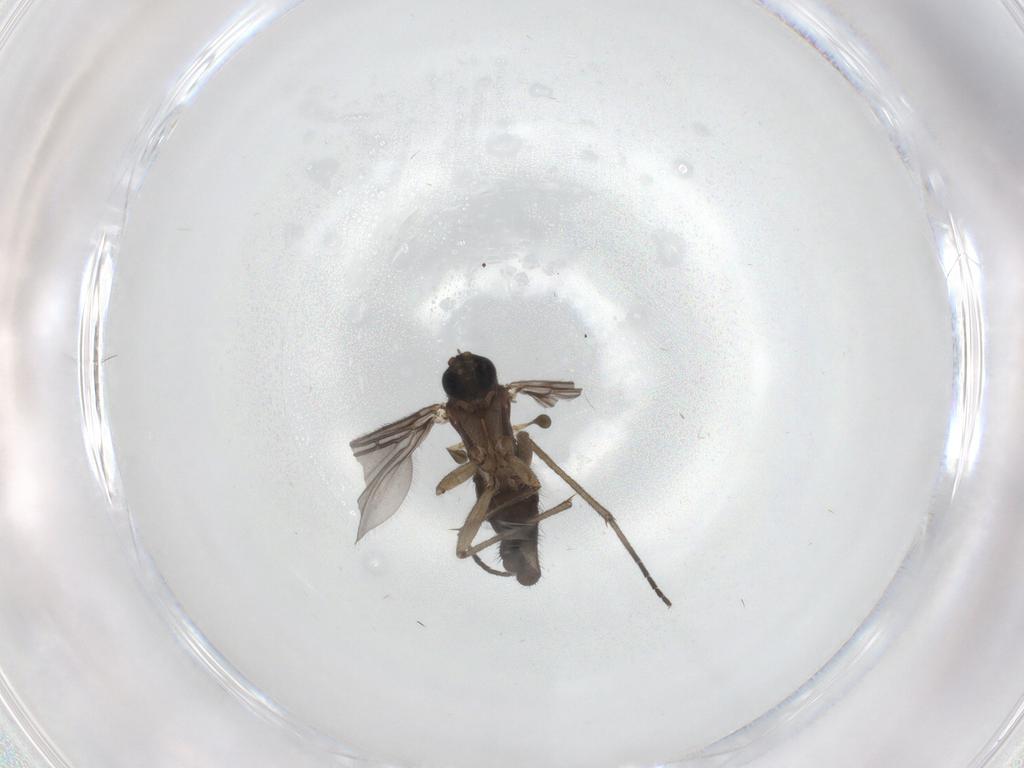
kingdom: Animalia
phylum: Arthropoda
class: Insecta
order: Diptera
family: Sciaridae
